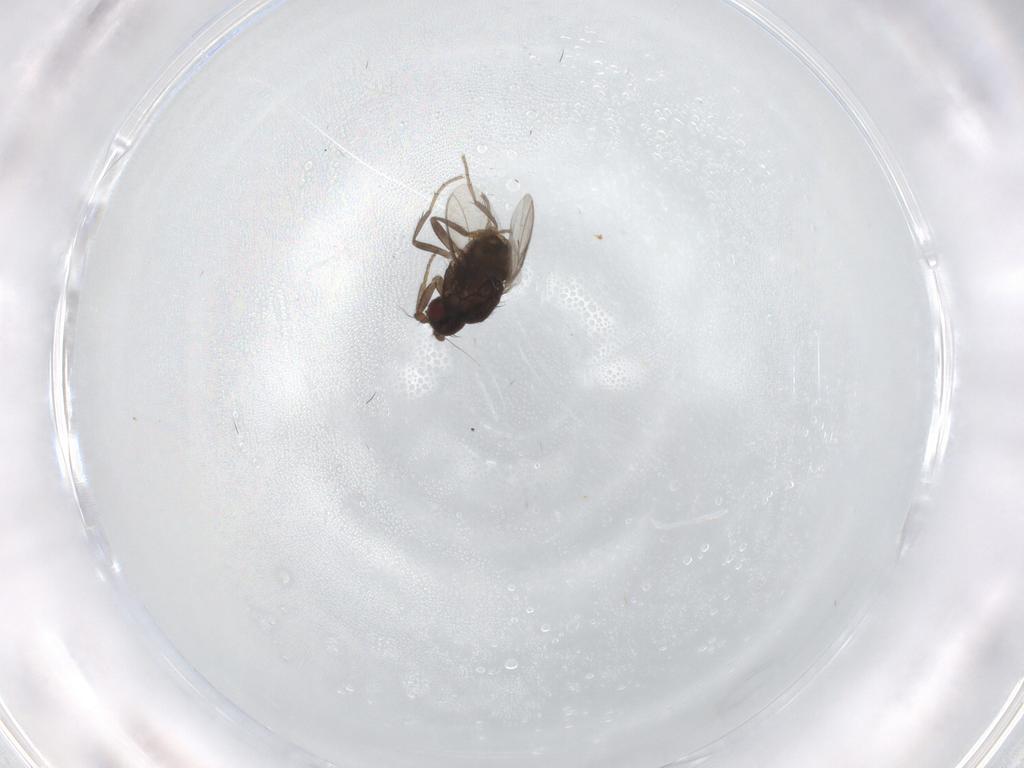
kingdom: Animalia
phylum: Arthropoda
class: Insecta
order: Diptera
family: Sphaeroceridae
